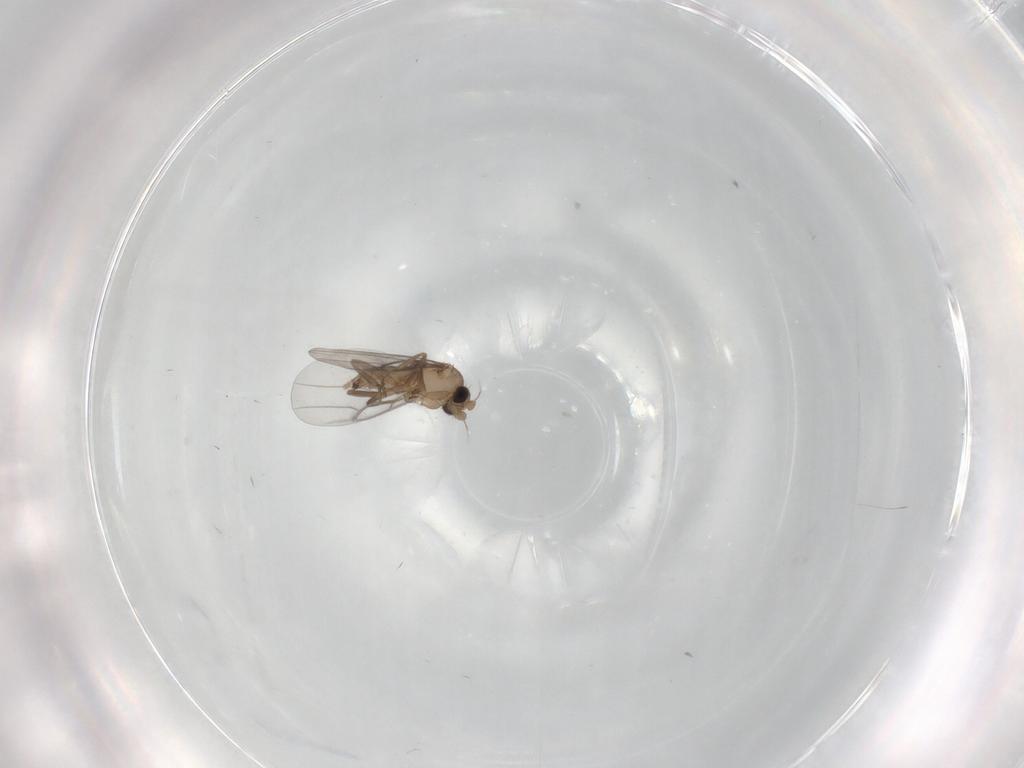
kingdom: Animalia
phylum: Arthropoda
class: Insecta
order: Diptera
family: Sciaridae
